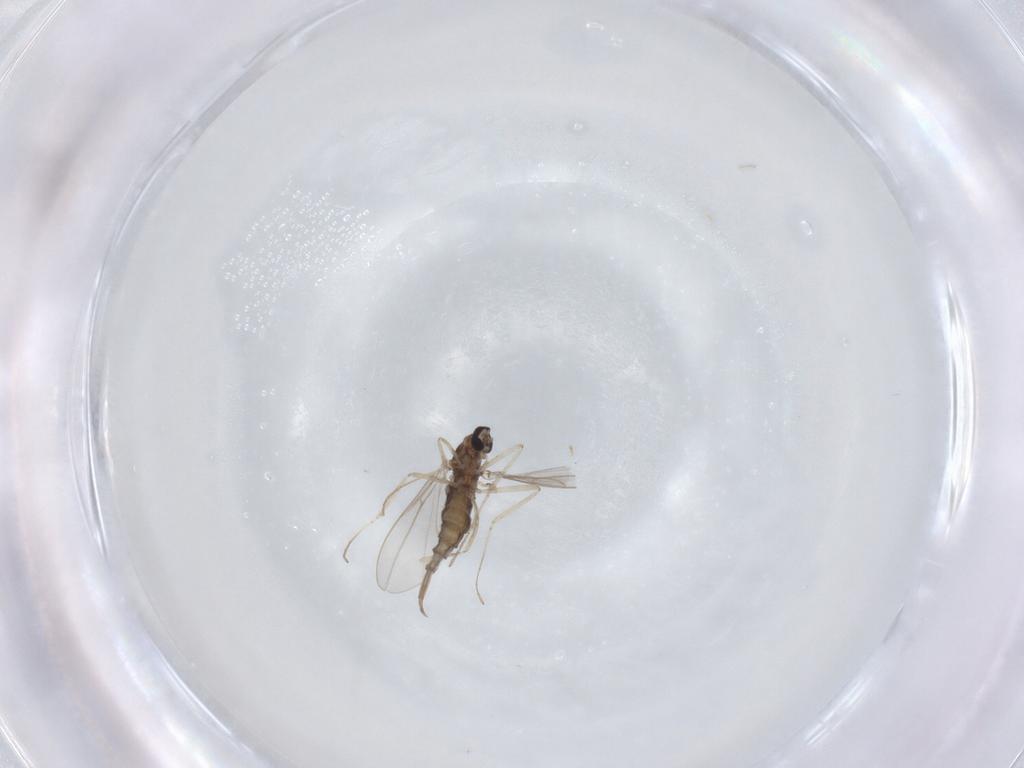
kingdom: Animalia
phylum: Arthropoda
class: Insecta
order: Diptera
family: Cecidomyiidae
